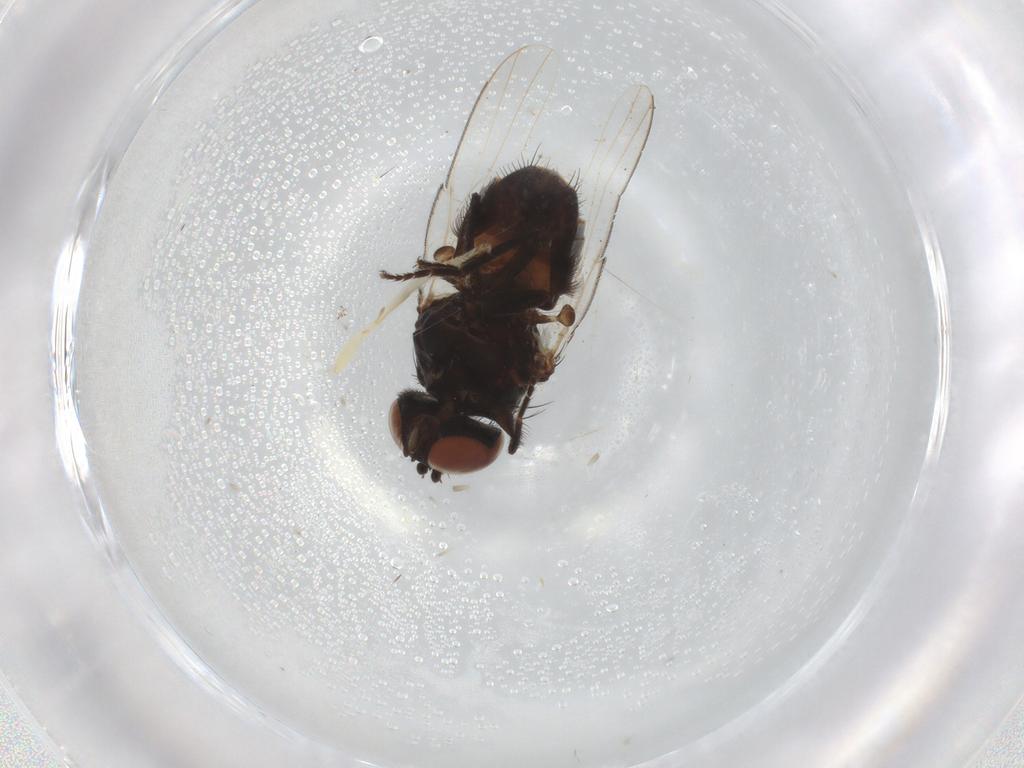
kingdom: Animalia
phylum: Arthropoda
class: Insecta
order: Diptera
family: Milichiidae
